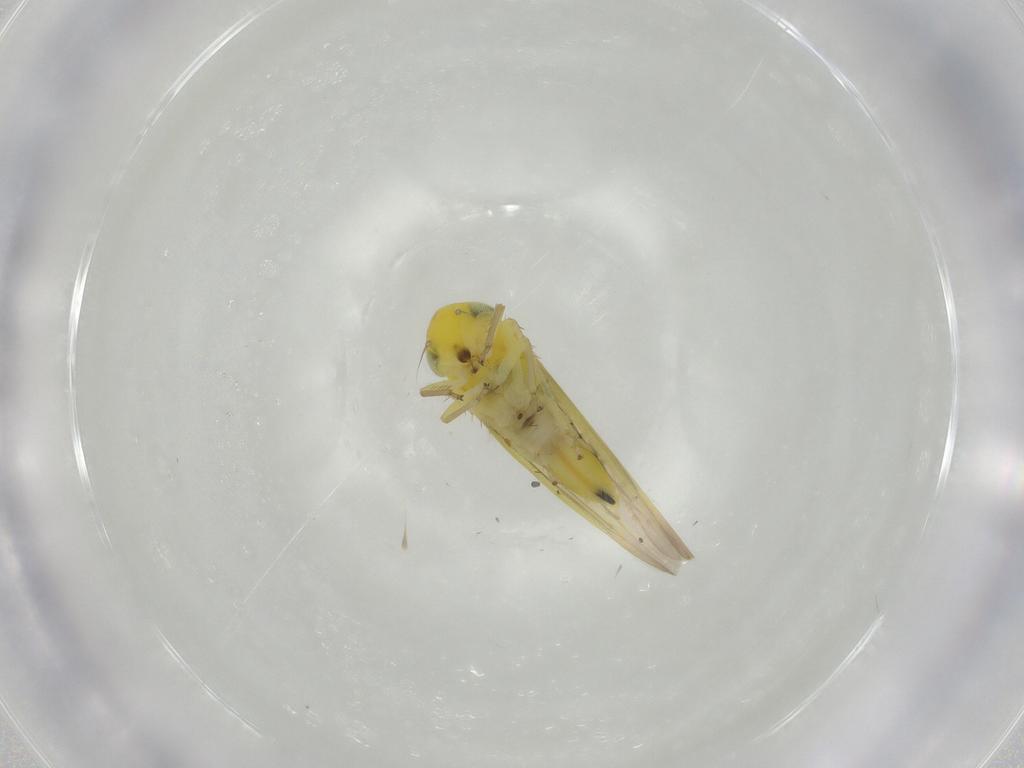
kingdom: Animalia
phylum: Arthropoda
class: Insecta
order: Hemiptera
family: Cicadellidae
